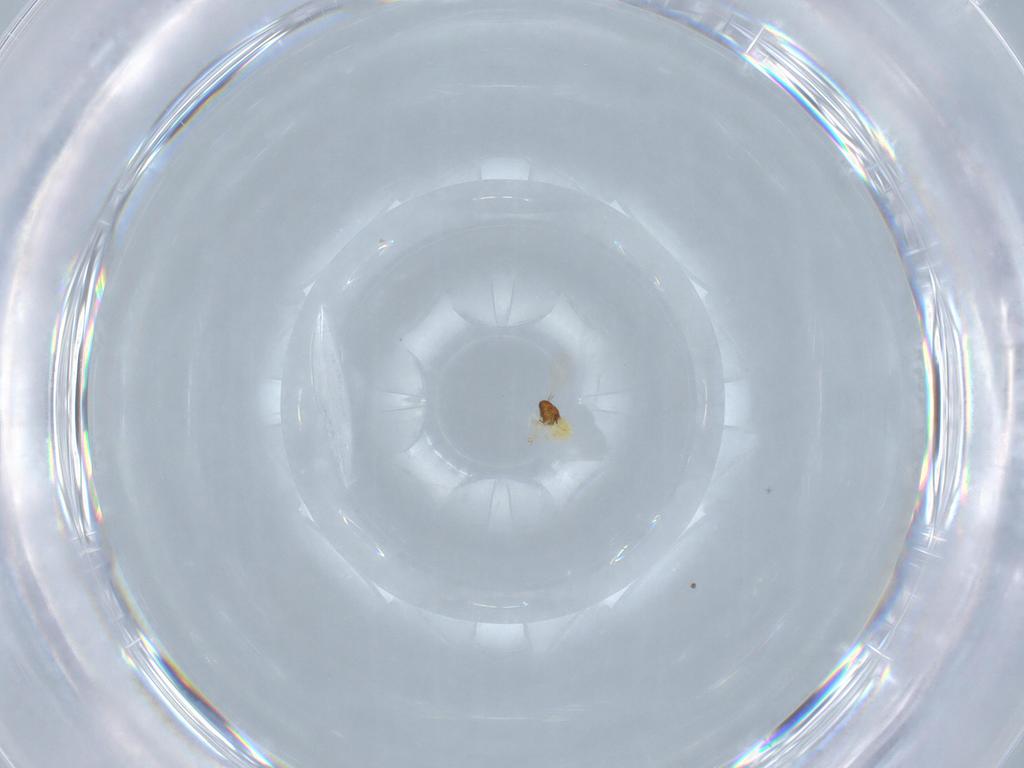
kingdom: Animalia
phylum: Arthropoda
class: Insecta
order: Hymenoptera
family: Aphelinidae
